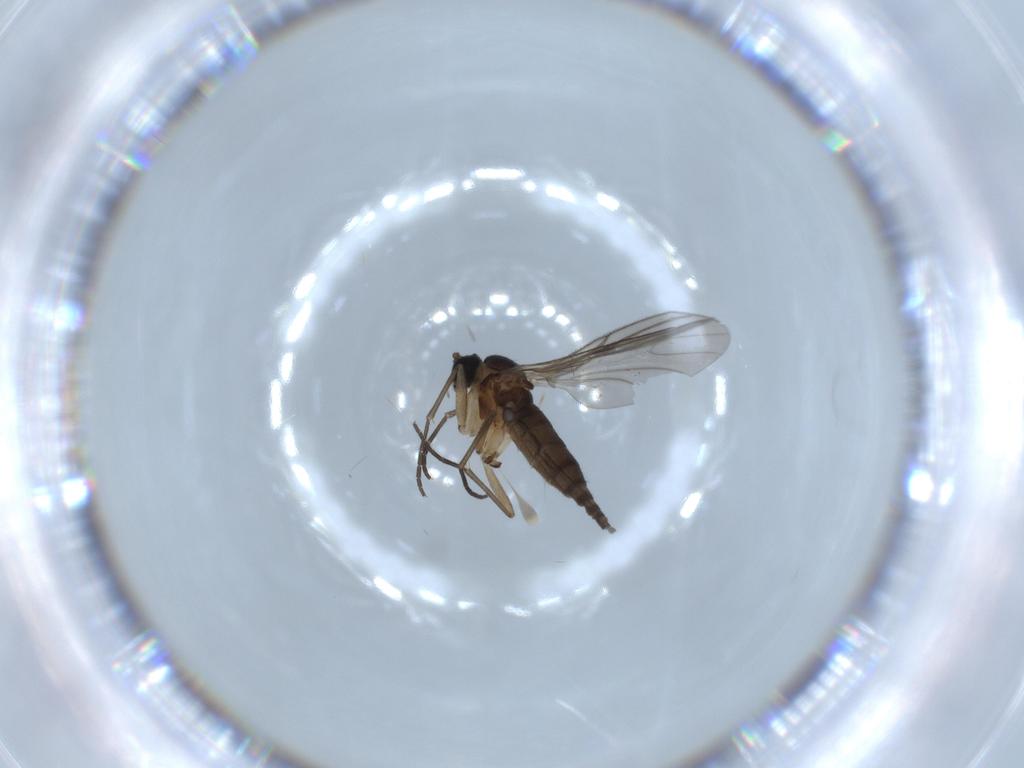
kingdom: Animalia
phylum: Arthropoda
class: Insecta
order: Diptera
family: Sciaridae
